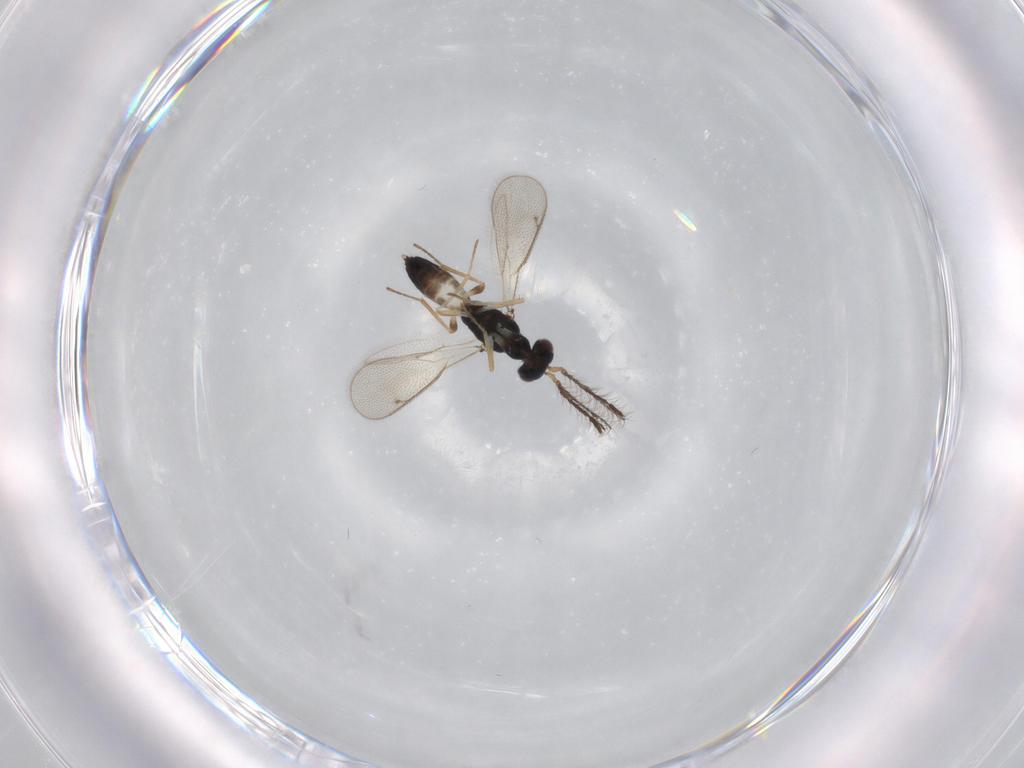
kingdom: Animalia
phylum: Arthropoda
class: Insecta
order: Hymenoptera
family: Eulophidae
